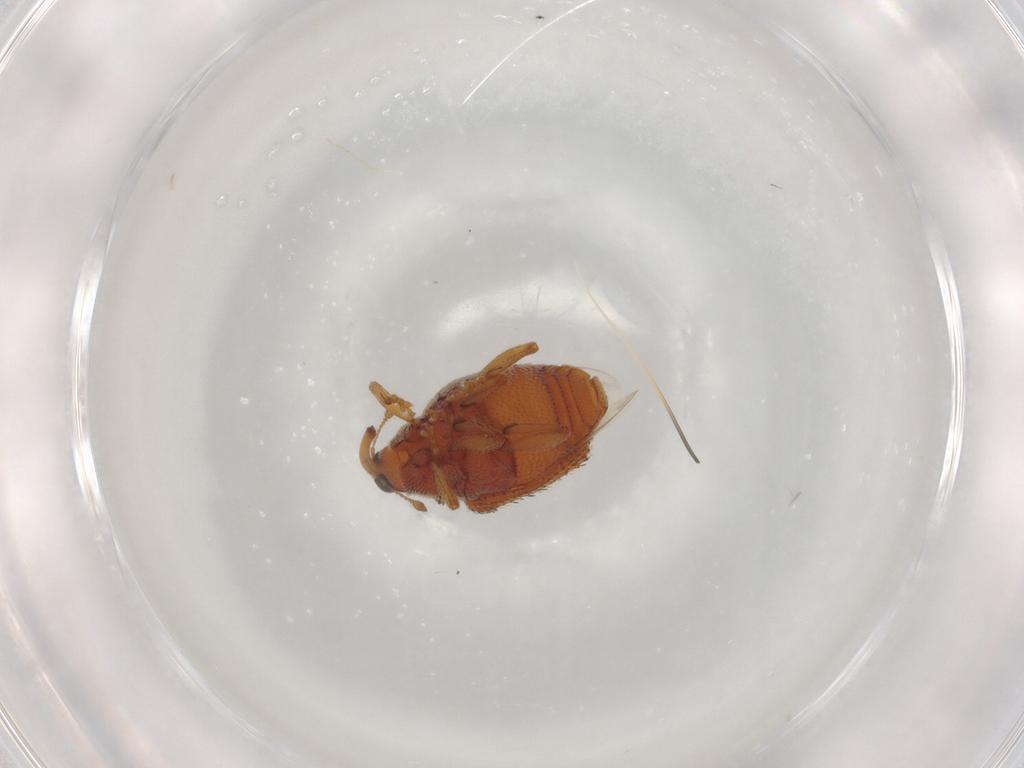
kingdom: Animalia
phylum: Arthropoda
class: Insecta
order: Coleoptera
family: Curculionidae
